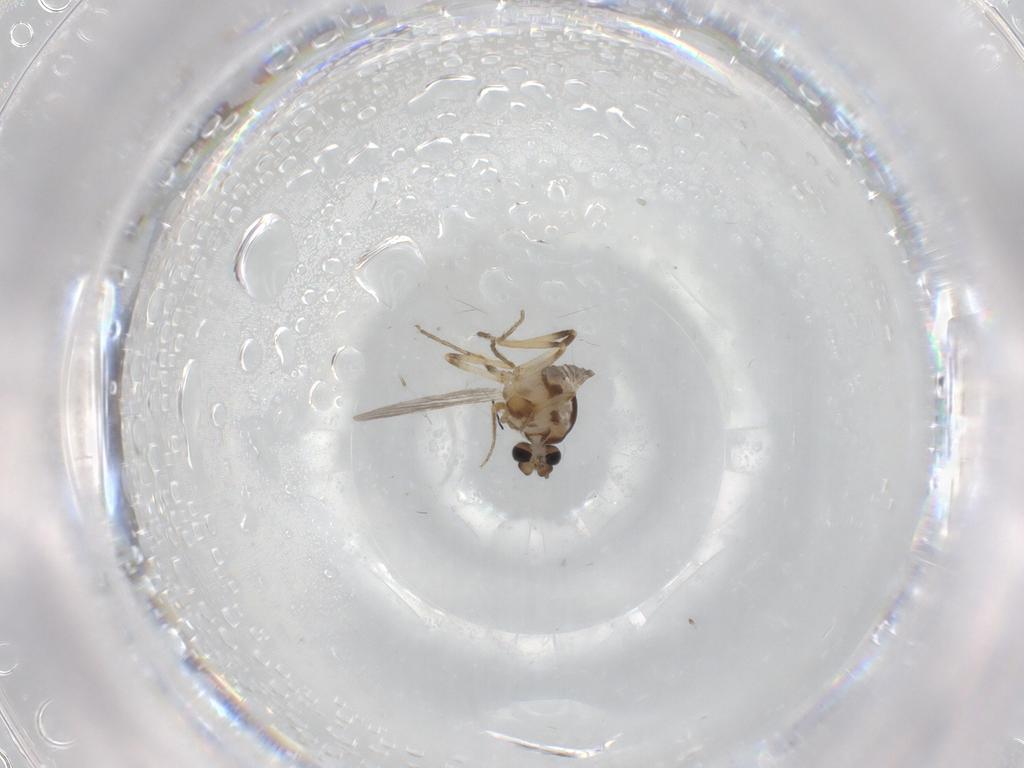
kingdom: Animalia
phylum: Arthropoda
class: Insecta
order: Diptera
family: Ceratopogonidae
